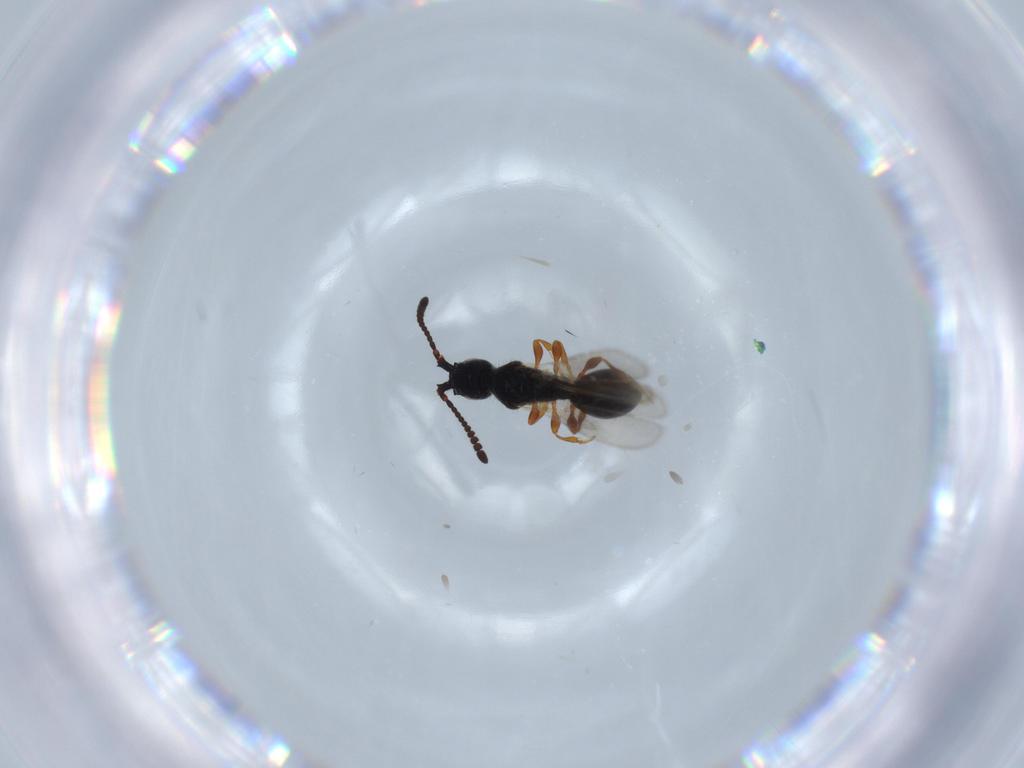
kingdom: Animalia
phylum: Arthropoda
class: Insecta
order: Hymenoptera
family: Diapriidae
